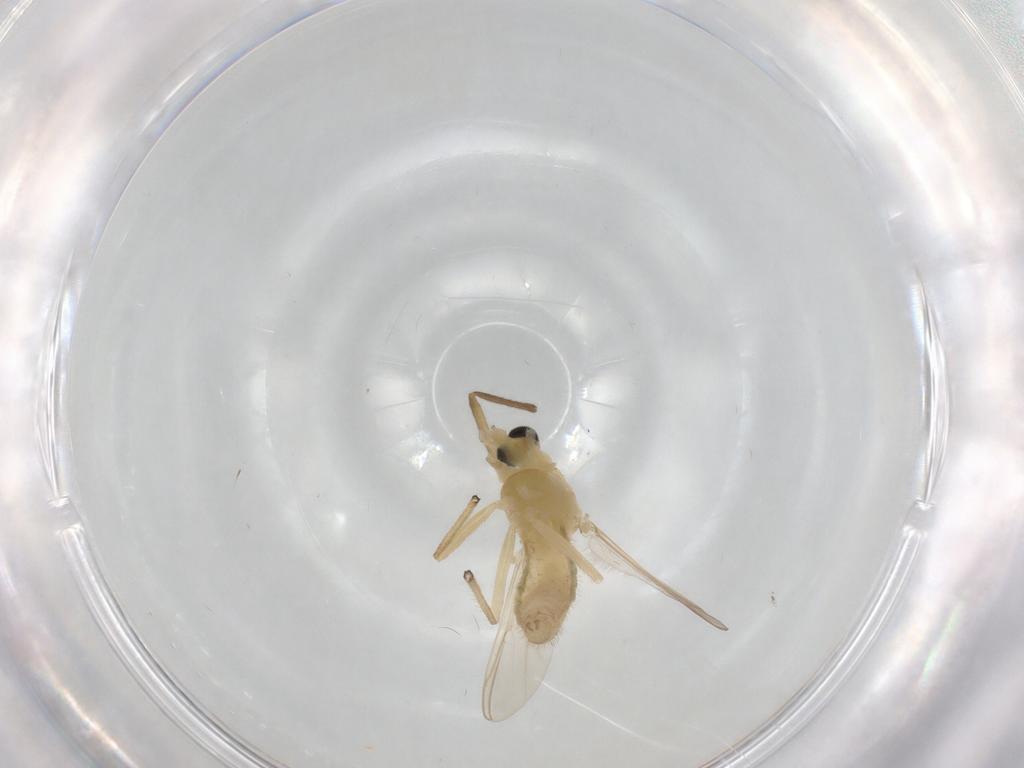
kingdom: Animalia
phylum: Arthropoda
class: Insecta
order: Diptera
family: Chironomidae
